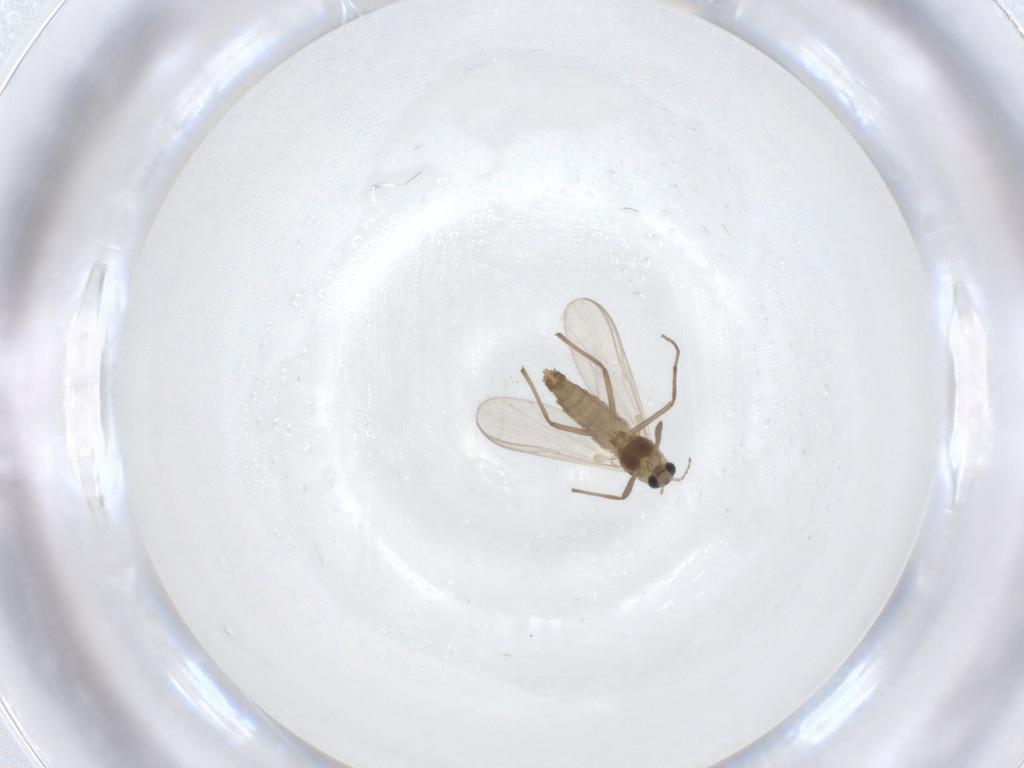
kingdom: Animalia
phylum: Arthropoda
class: Insecta
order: Diptera
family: Chironomidae
